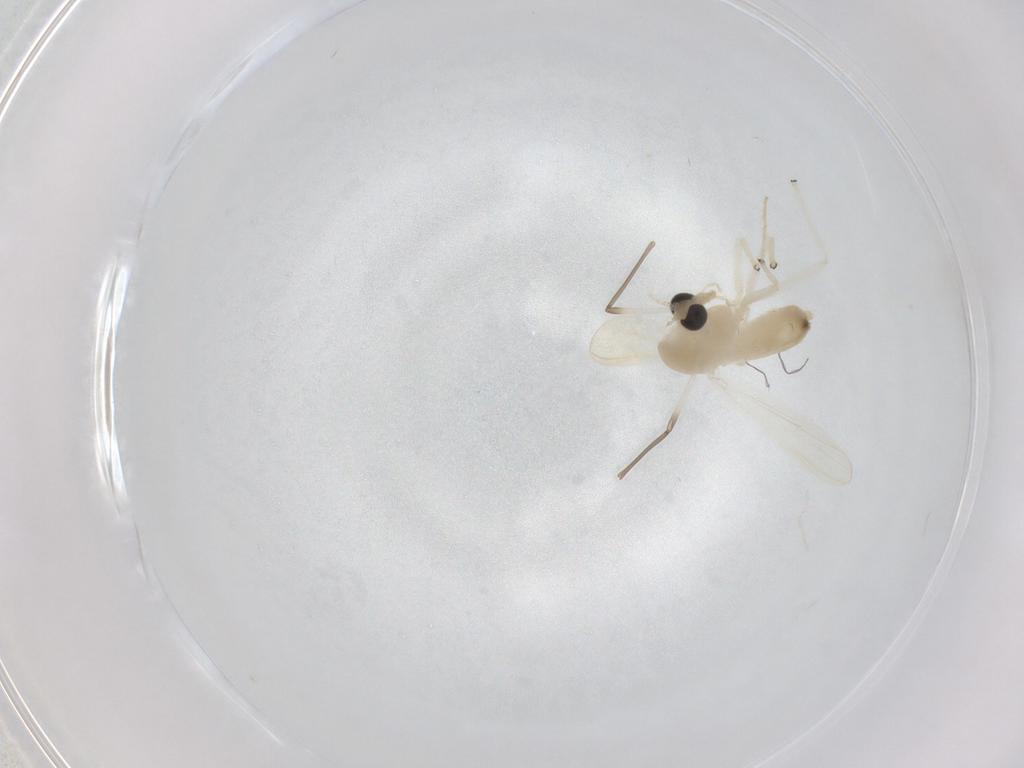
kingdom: Animalia
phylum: Arthropoda
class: Insecta
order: Diptera
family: Chironomidae
